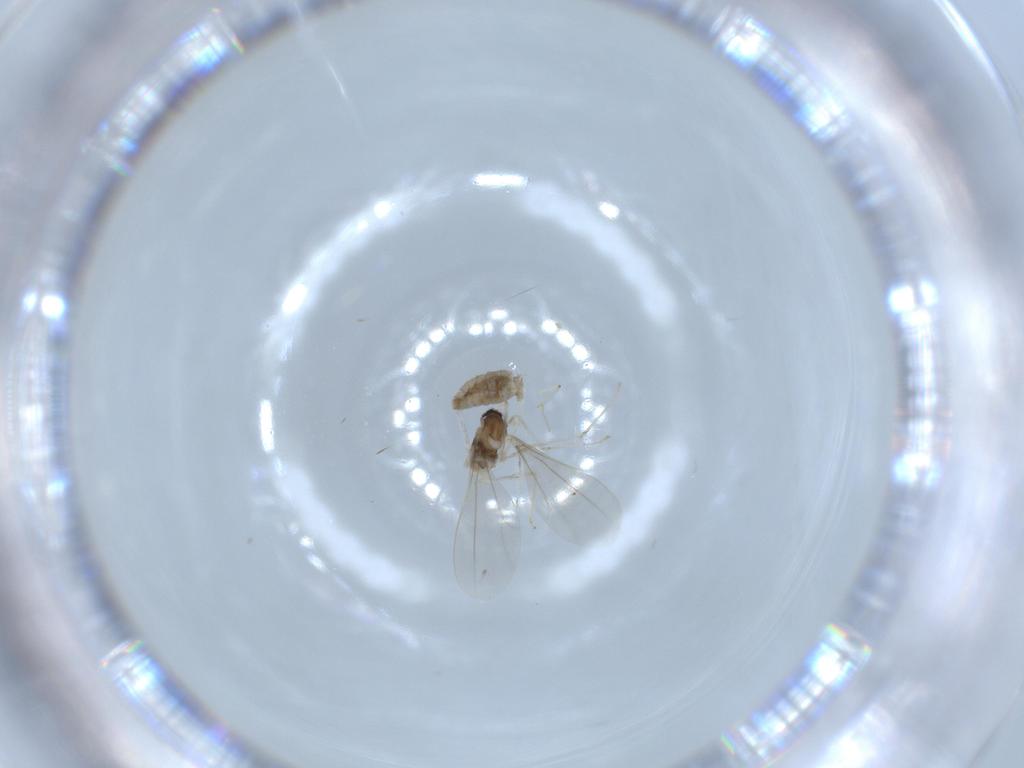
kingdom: Animalia
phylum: Arthropoda
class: Insecta
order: Diptera
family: Cecidomyiidae
